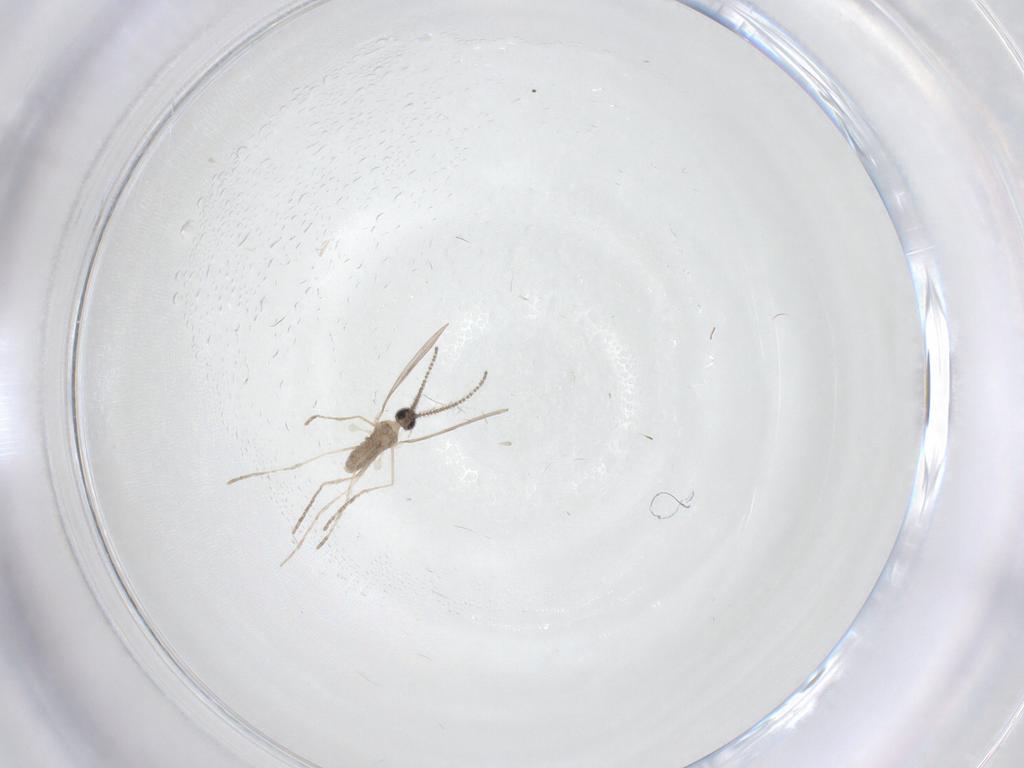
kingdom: Animalia
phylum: Arthropoda
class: Insecta
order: Diptera
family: Cecidomyiidae
